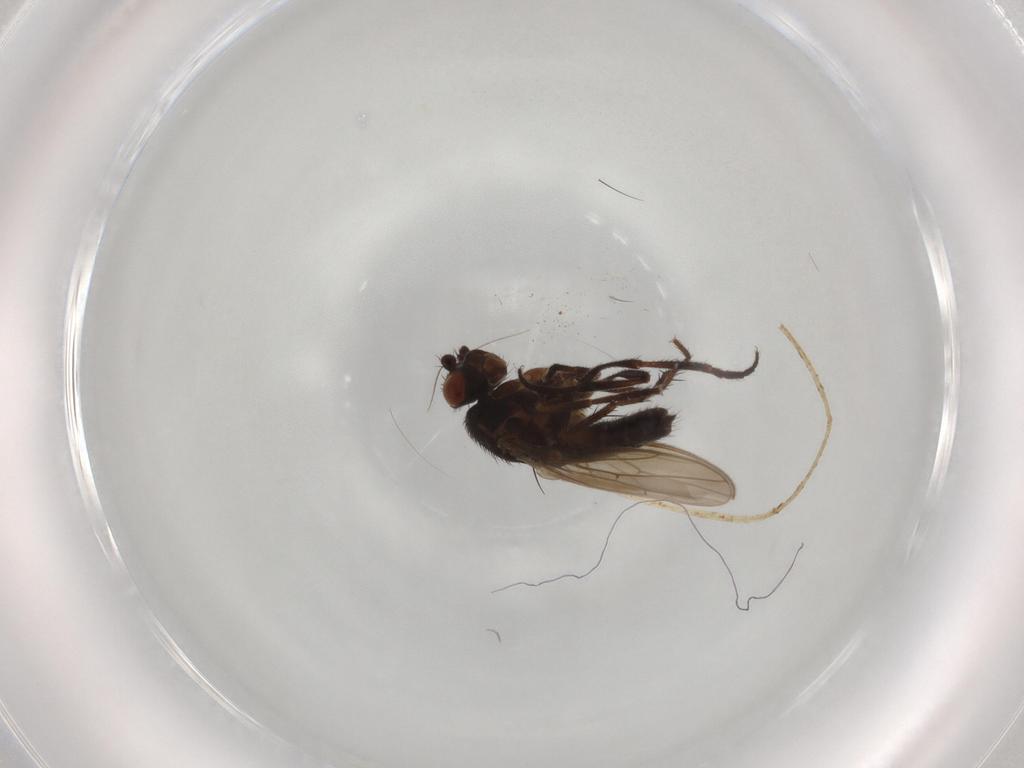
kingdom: Animalia
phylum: Arthropoda
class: Insecta
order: Diptera
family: Sphaeroceridae
